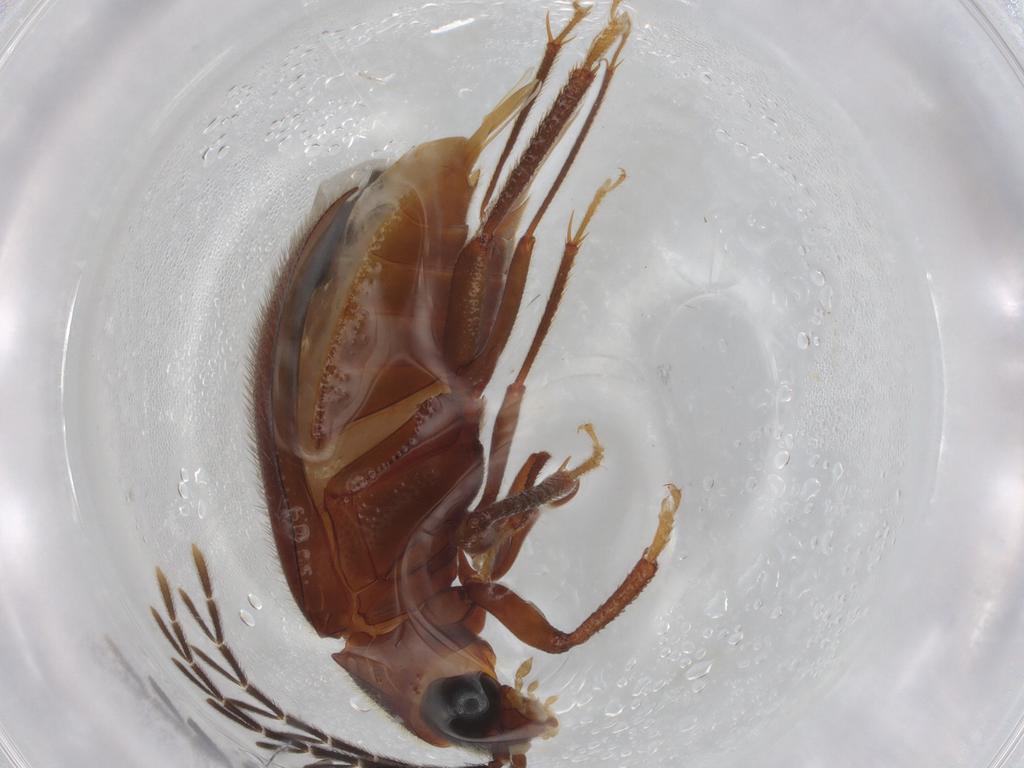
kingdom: Animalia
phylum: Arthropoda
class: Insecta
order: Coleoptera
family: Ptilodactylidae
